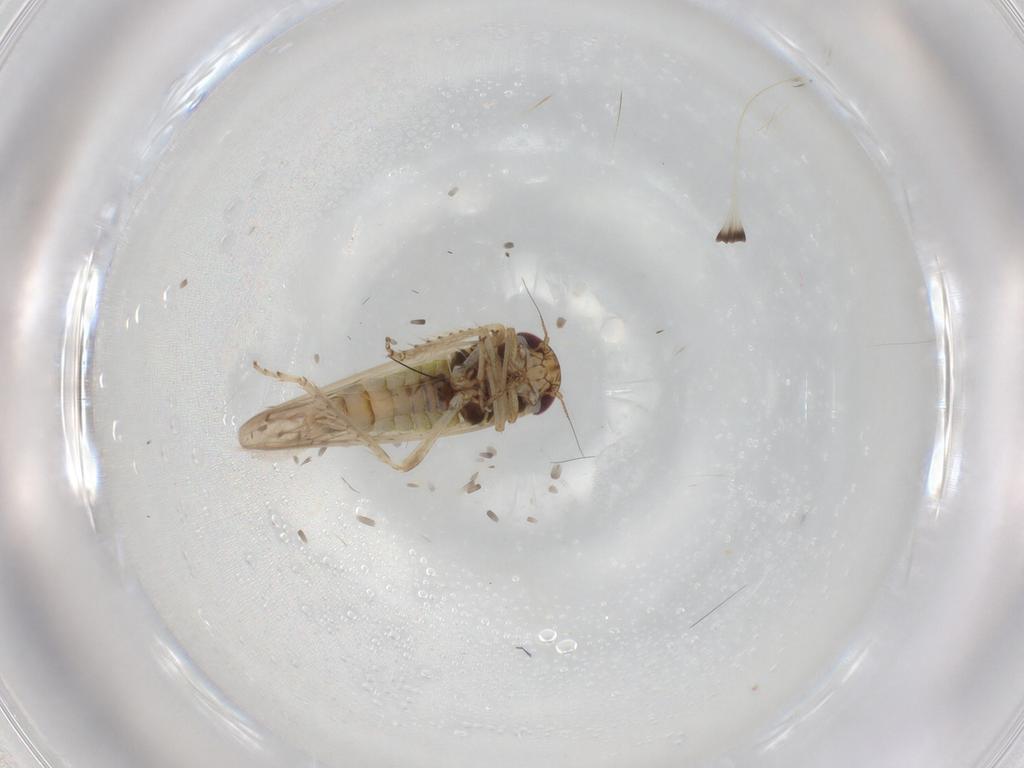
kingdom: Animalia
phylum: Arthropoda
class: Insecta
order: Hemiptera
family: Cicadellidae
